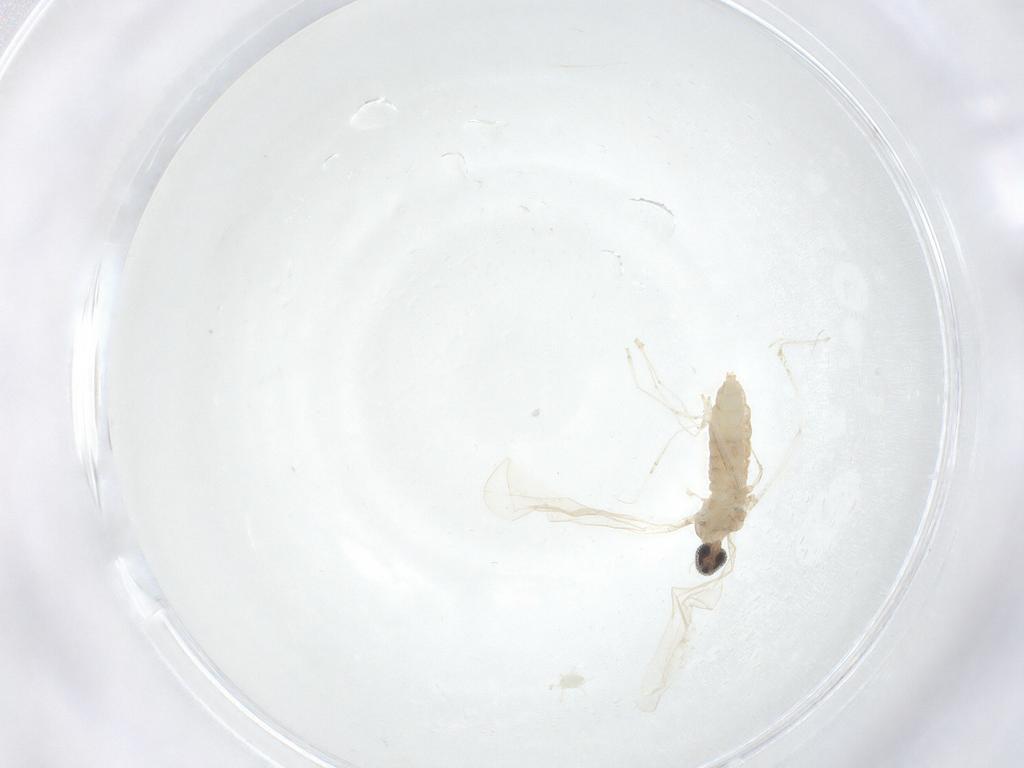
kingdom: Animalia
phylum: Arthropoda
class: Insecta
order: Diptera
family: Cecidomyiidae
